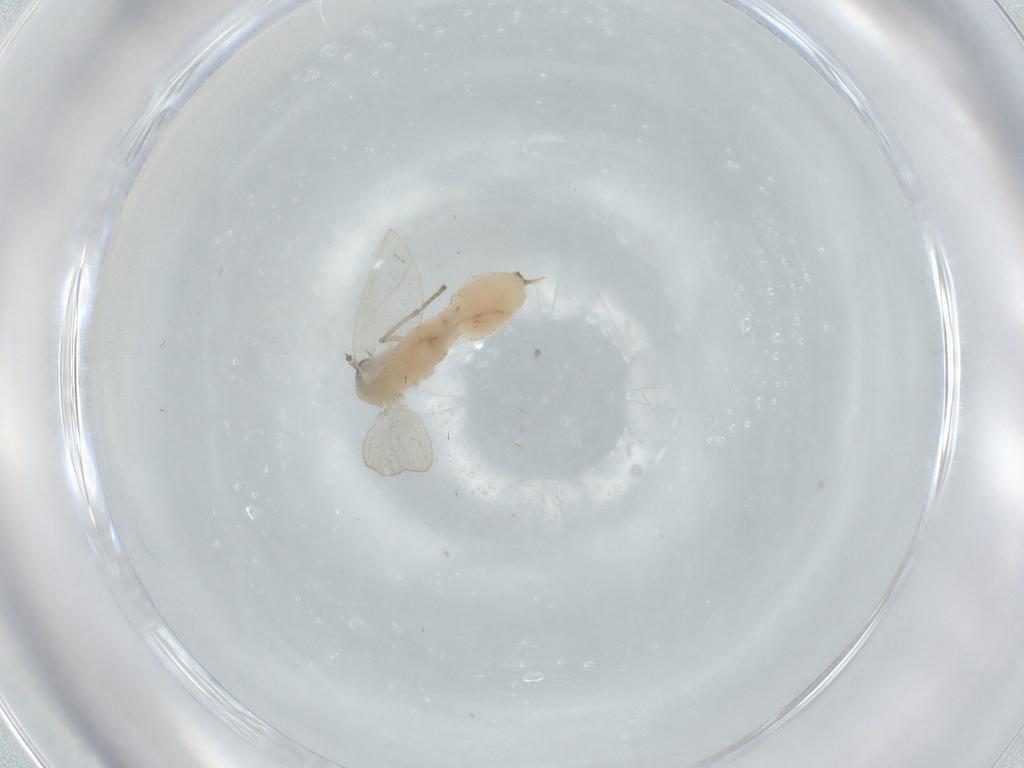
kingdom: Animalia
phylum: Arthropoda
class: Insecta
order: Diptera
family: Psychodidae
